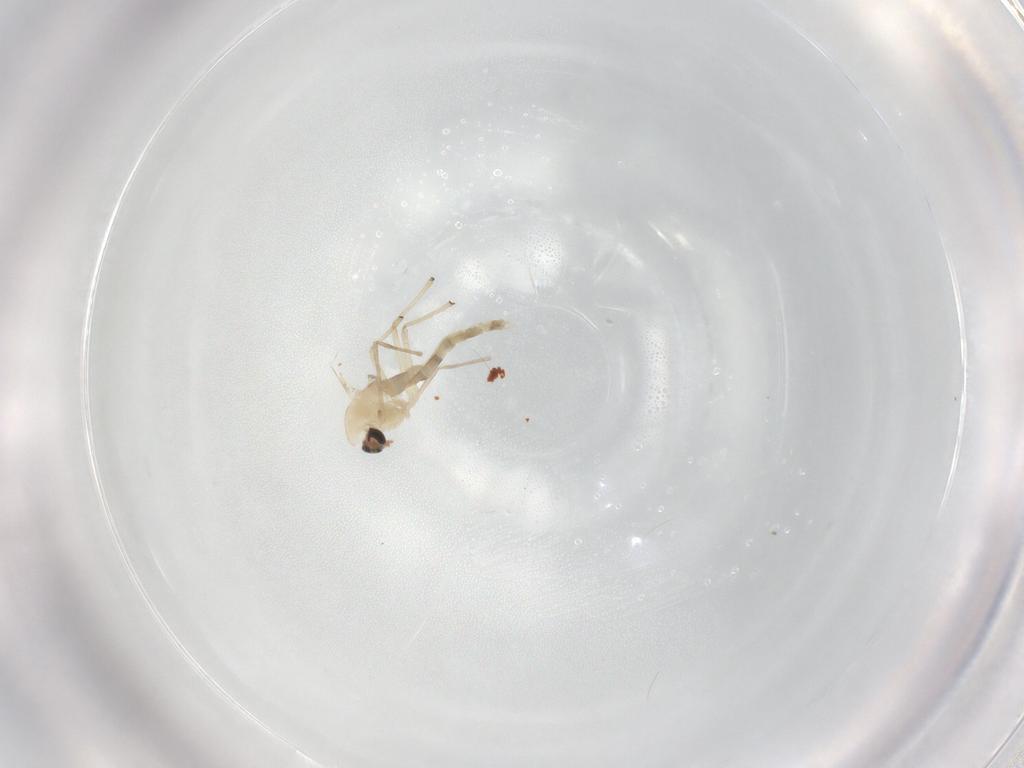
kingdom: Animalia
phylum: Arthropoda
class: Insecta
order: Diptera
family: Chironomidae
